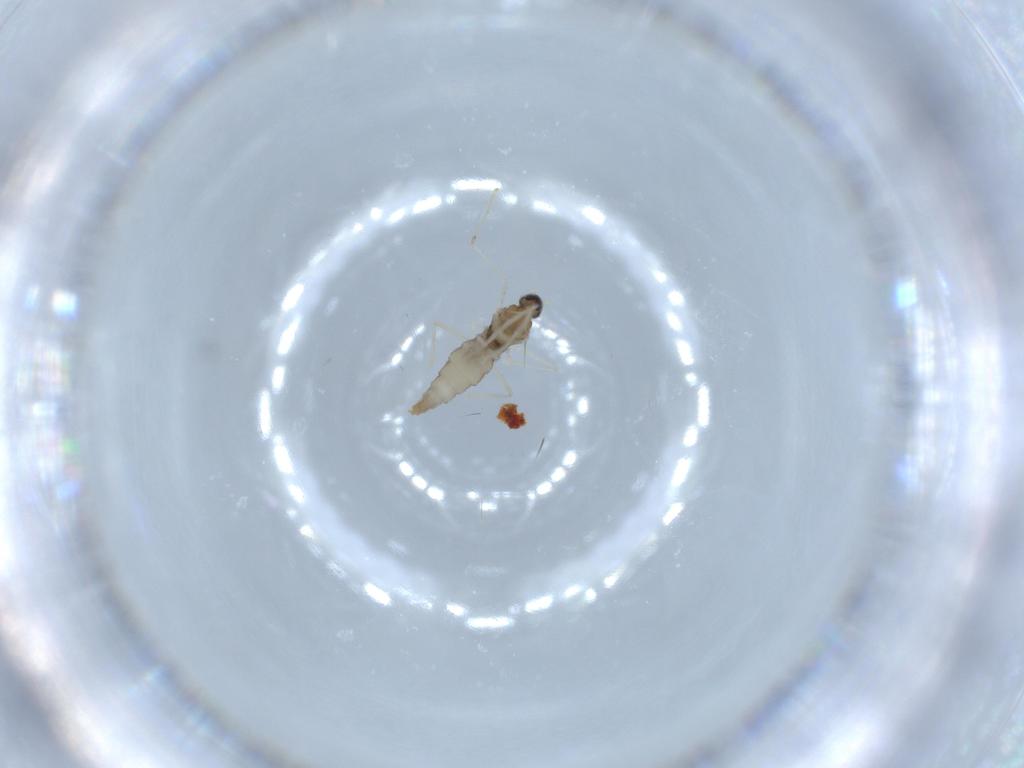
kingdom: Animalia
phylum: Arthropoda
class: Insecta
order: Diptera
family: Cecidomyiidae
